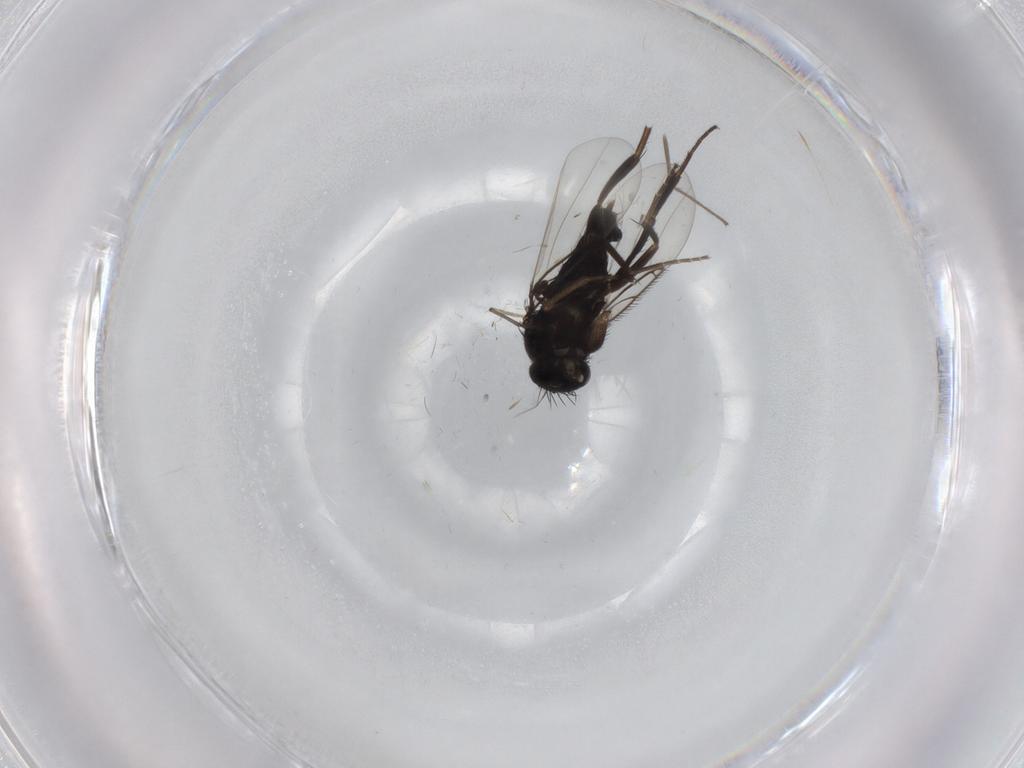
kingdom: Animalia
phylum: Arthropoda
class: Insecta
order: Diptera
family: Phoridae
